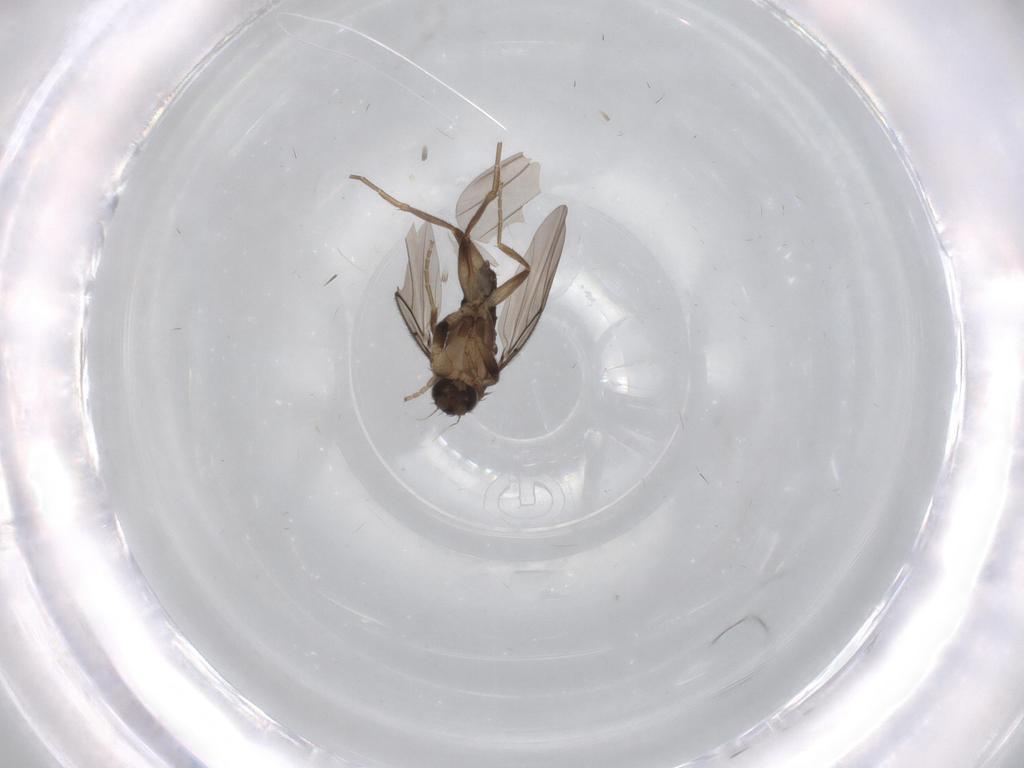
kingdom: Animalia
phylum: Arthropoda
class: Insecta
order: Diptera
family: Phoridae
